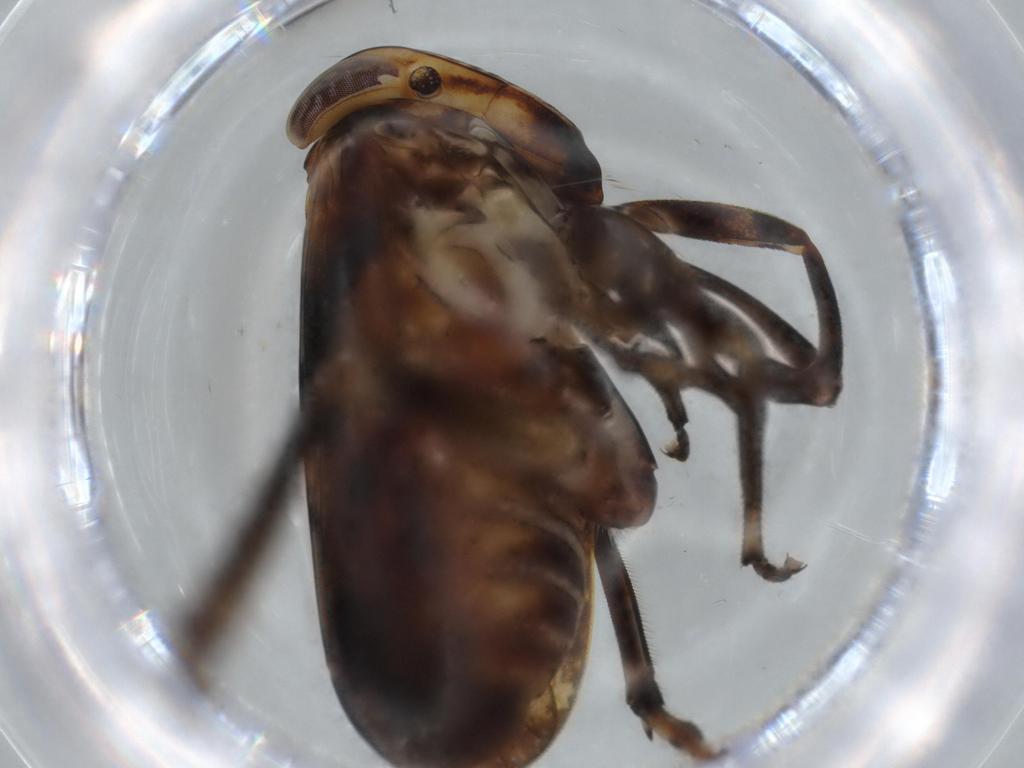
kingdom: Animalia
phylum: Arthropoda
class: Insecta
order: Hemiptera
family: Issidae
